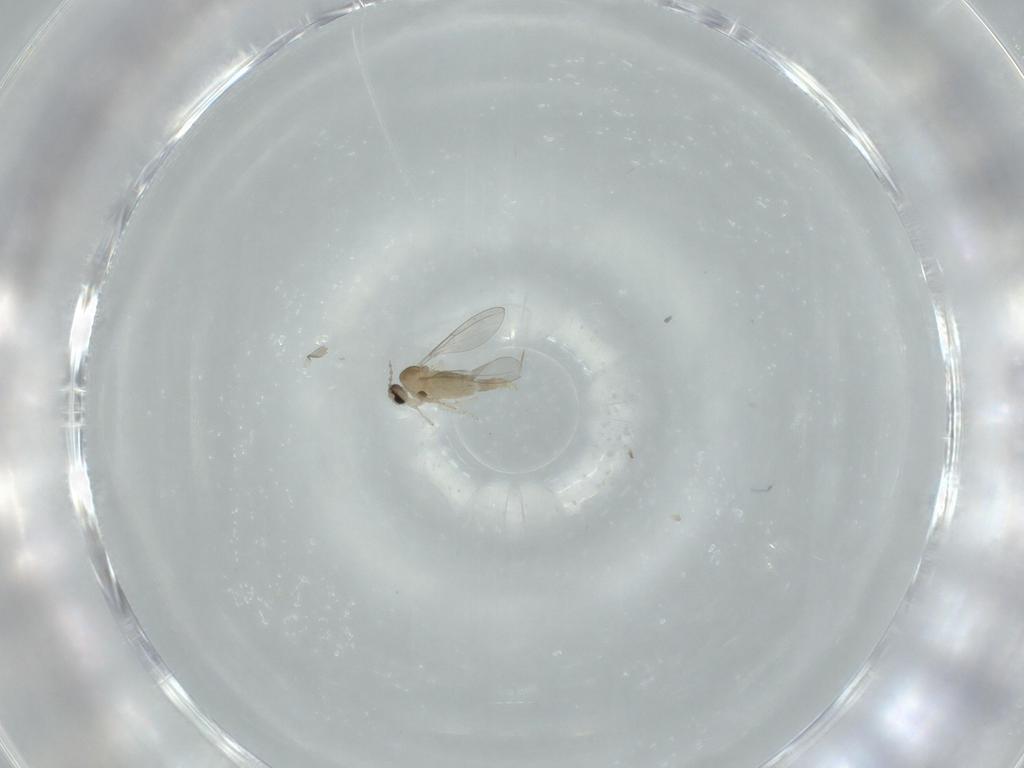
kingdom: Animalia
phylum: Arthropoda
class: Insecta
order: Diptera
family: Cecidomyiidae
